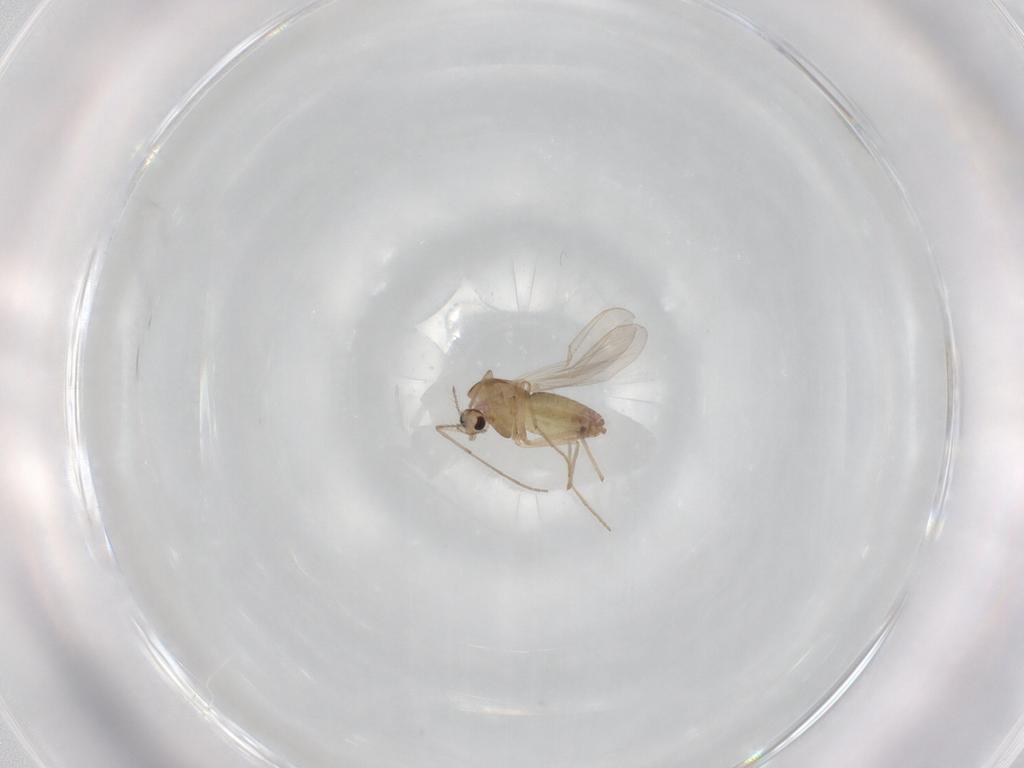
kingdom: Animalia
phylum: Arthropoda
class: Insecta
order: Diptera
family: Chironomidae
